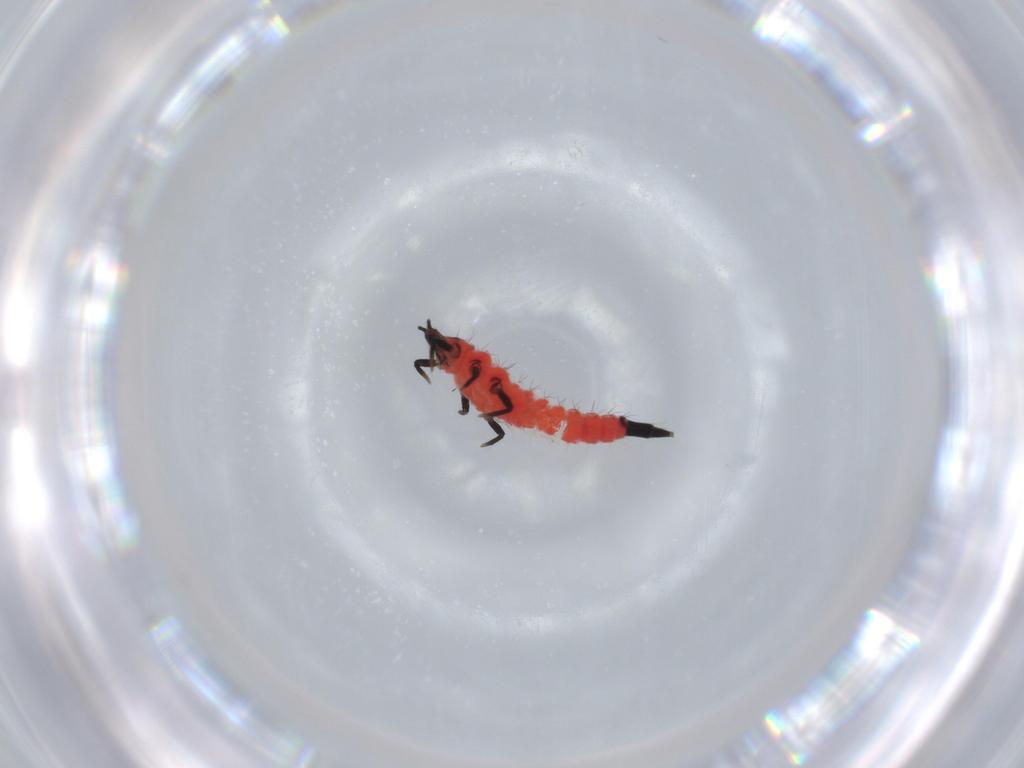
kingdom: Animalia
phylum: Arthropoda
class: Insecta
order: Thysanoptera
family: Phlaeothripidae
